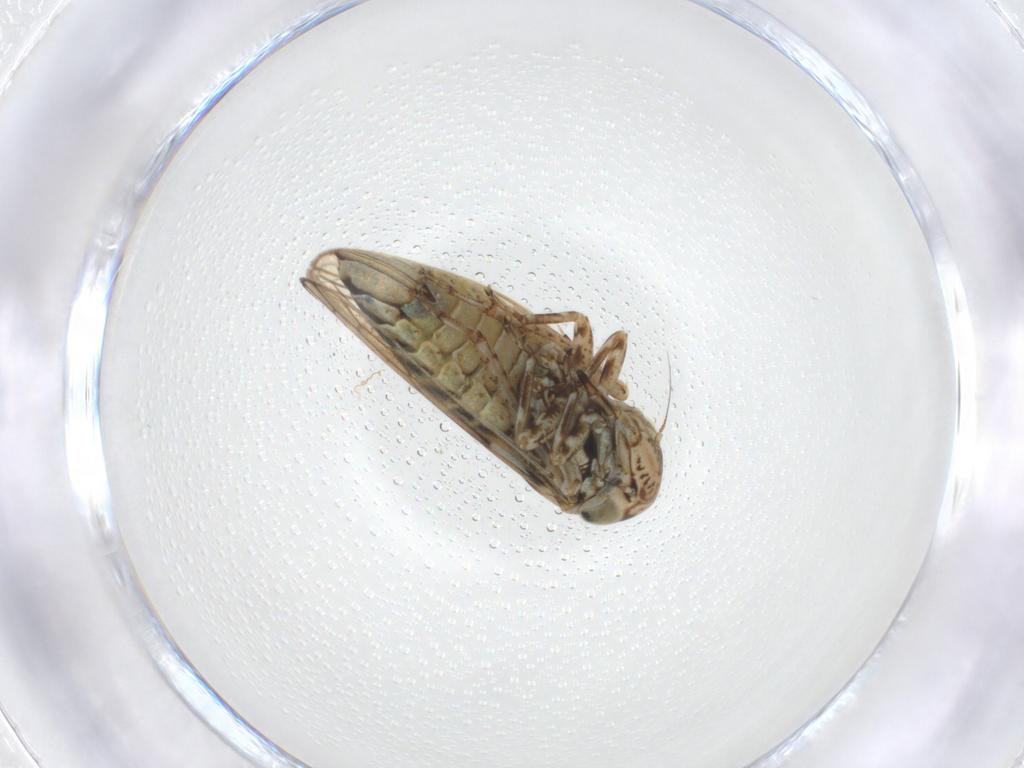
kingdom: Animalia
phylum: Arthropoda
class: Insecta
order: Hemiptera
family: Cicadellidae
